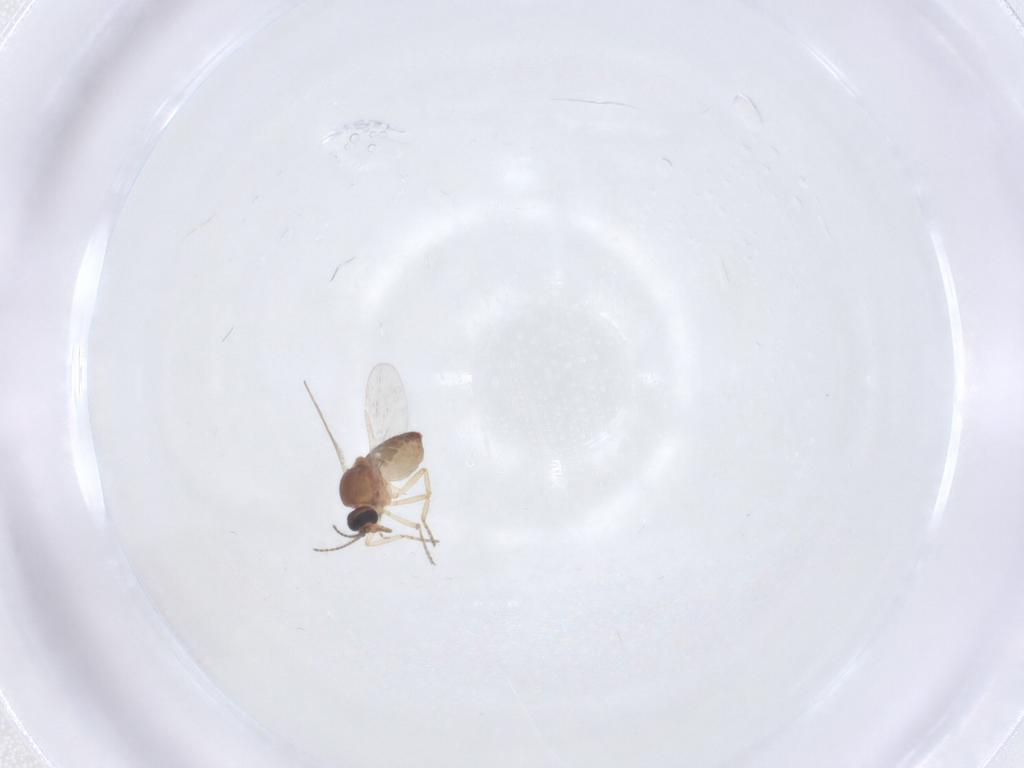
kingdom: Animalia
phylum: Arthropoda
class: Insecta
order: Diptera
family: Ceratopogonidae
